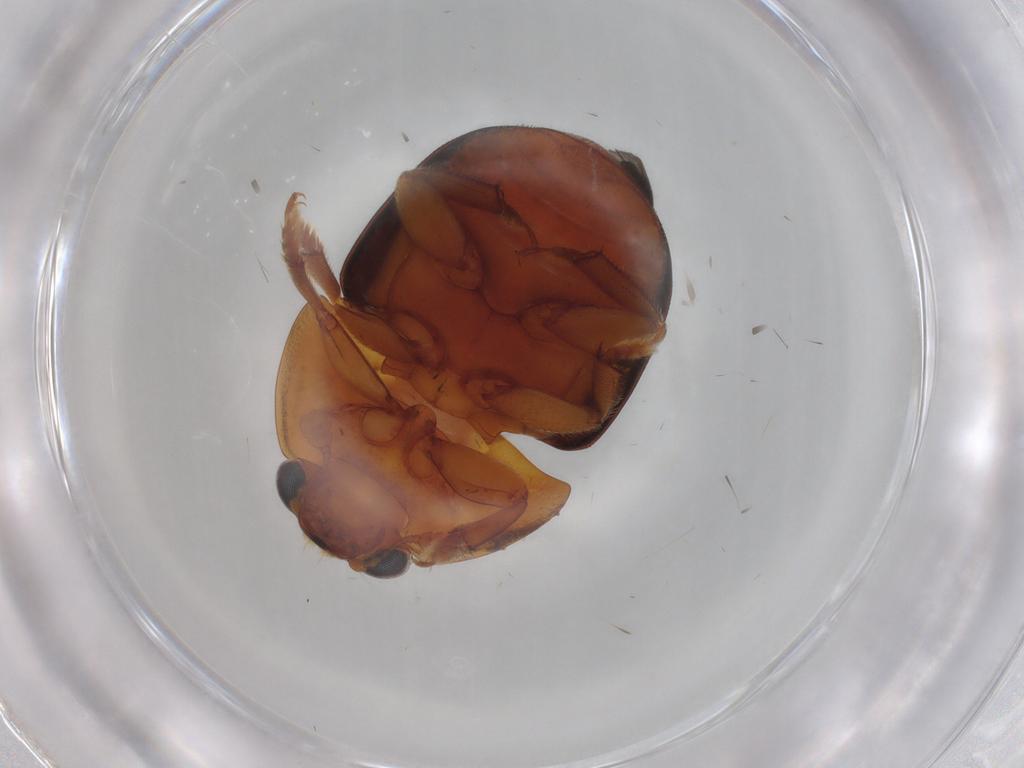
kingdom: Animalia
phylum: Arthropoda
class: Insecta
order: Coleoptera
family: Nitidulidae
